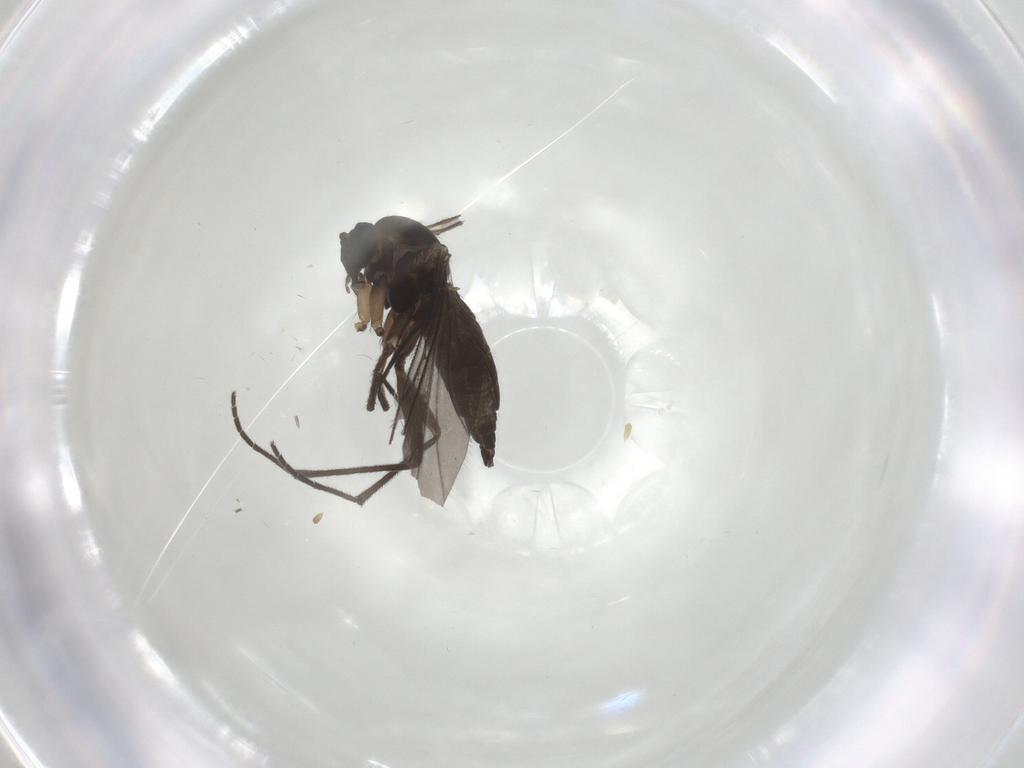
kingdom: Animalia
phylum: Arthropoda
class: Insecta
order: Diptera
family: Sciaridae
